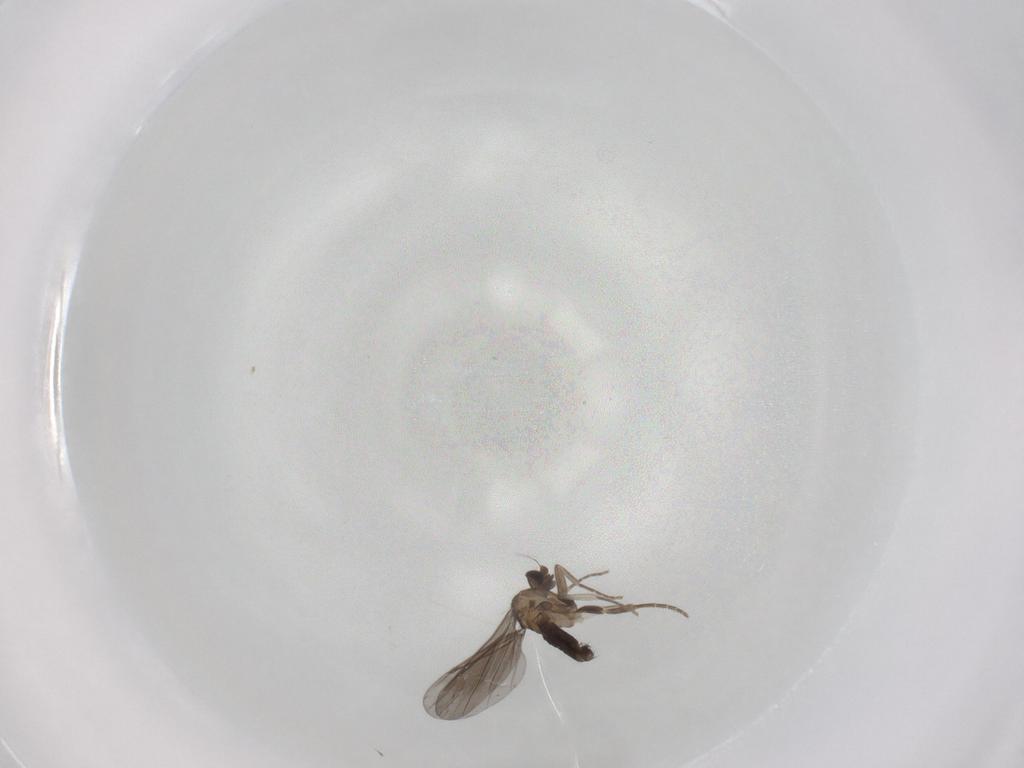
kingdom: Animalia
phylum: Arthropoda
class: Insecta
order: Diptera
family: Phoridae
